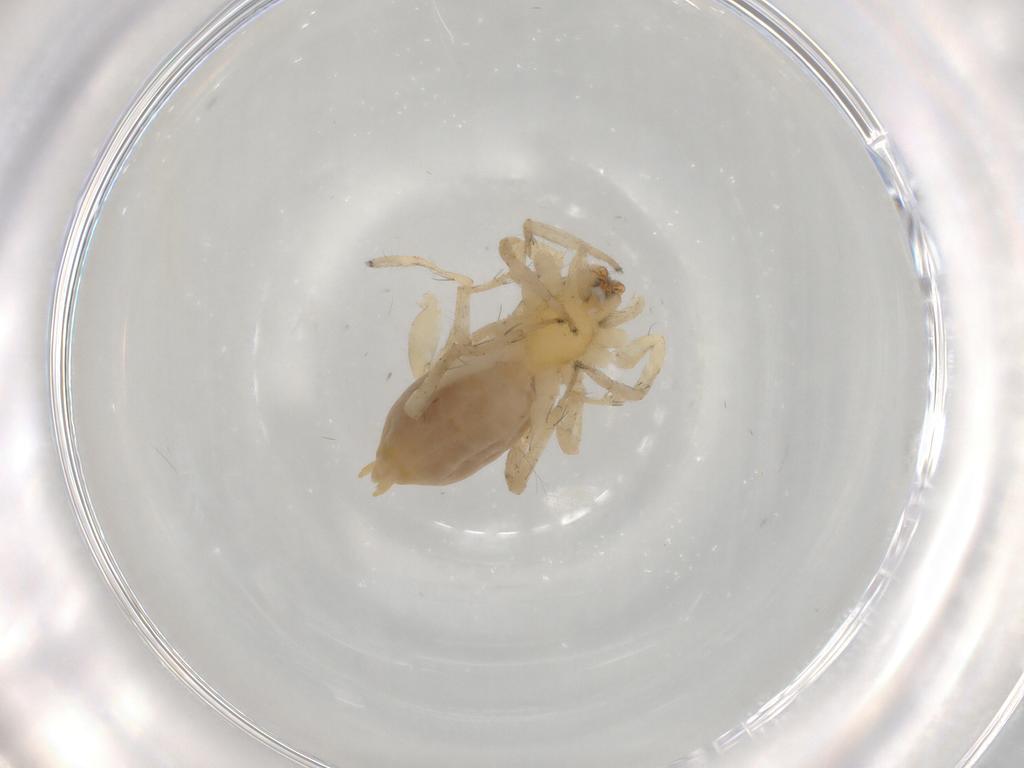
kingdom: Animalia
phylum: Arthropoda
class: Arachnida
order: Araneae
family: Anyphaenidae
